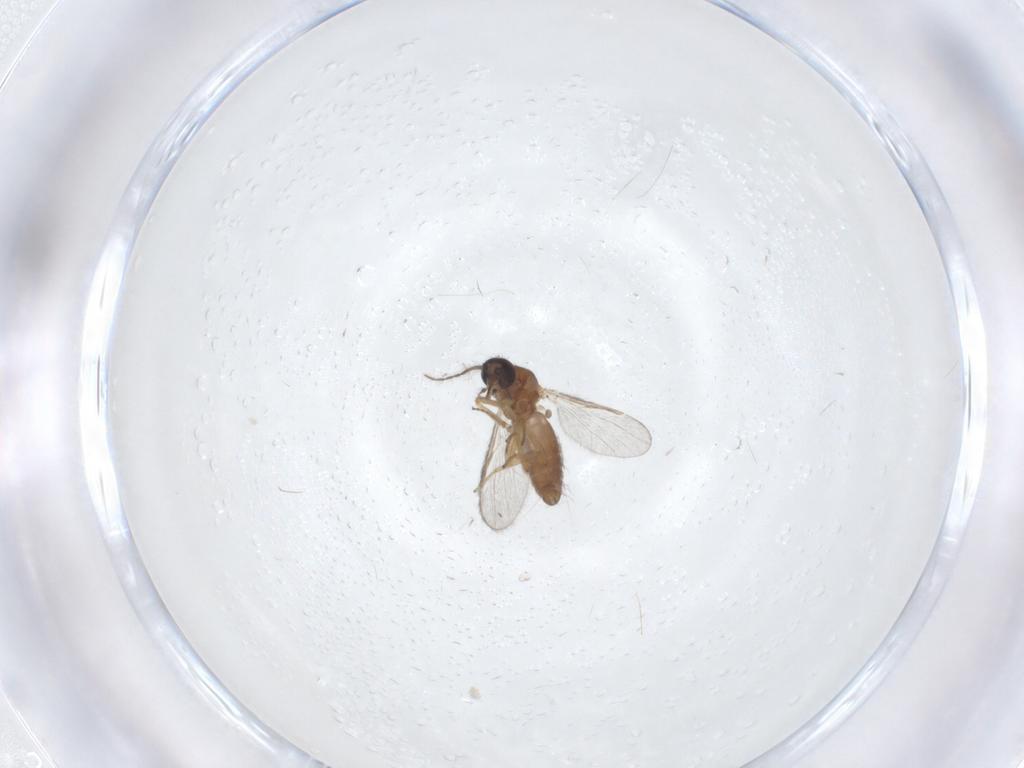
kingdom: Animalia
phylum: Arthropoda
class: Insecta
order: Diptera
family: Ceratopogonidae
